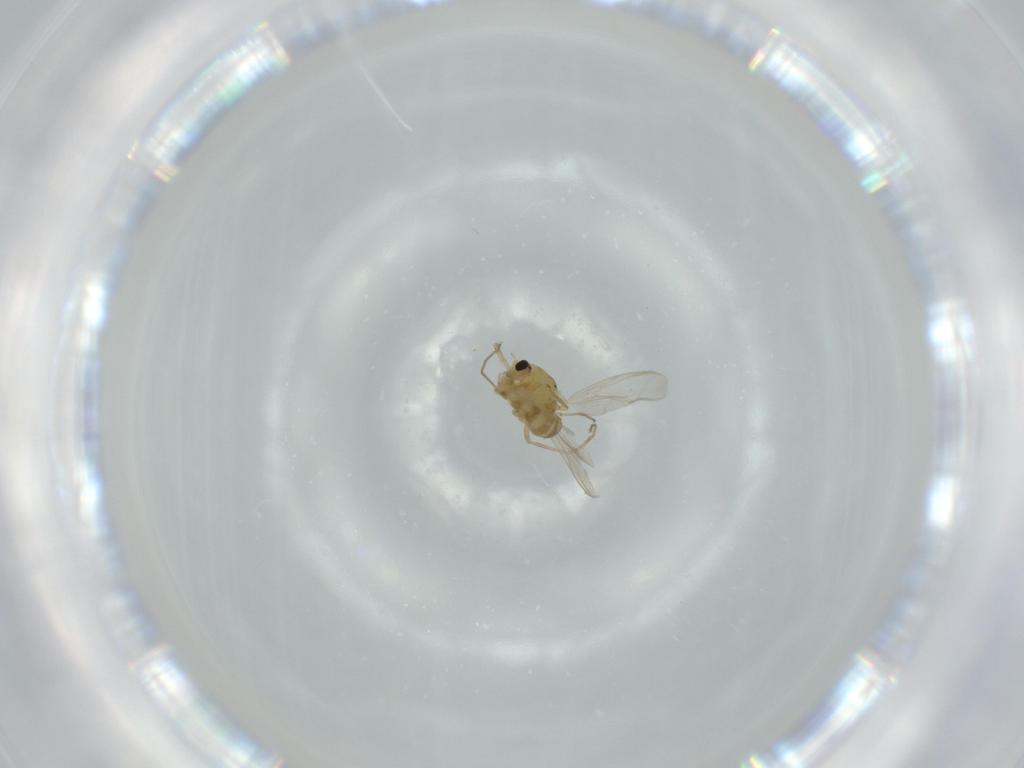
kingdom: Animalia
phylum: Arthropoda
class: Insecta
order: Diptera
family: Chironomidae
